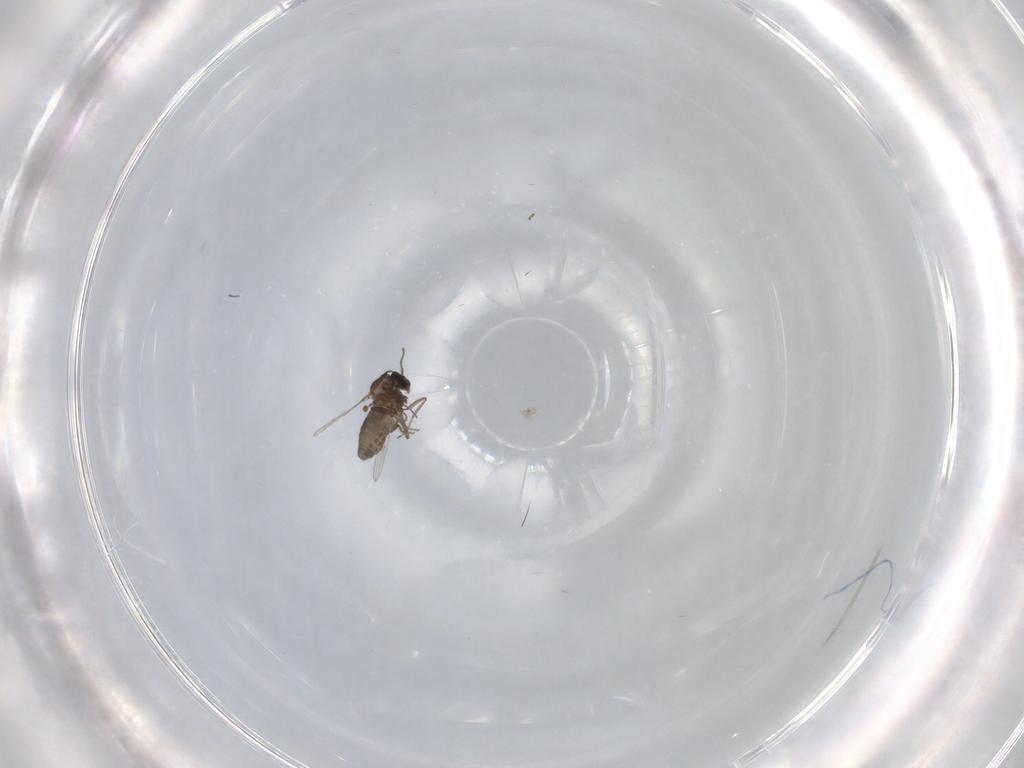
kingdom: Animalia
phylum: Arthropoda
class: Insecta
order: Diptera
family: Ceratopogonidae
